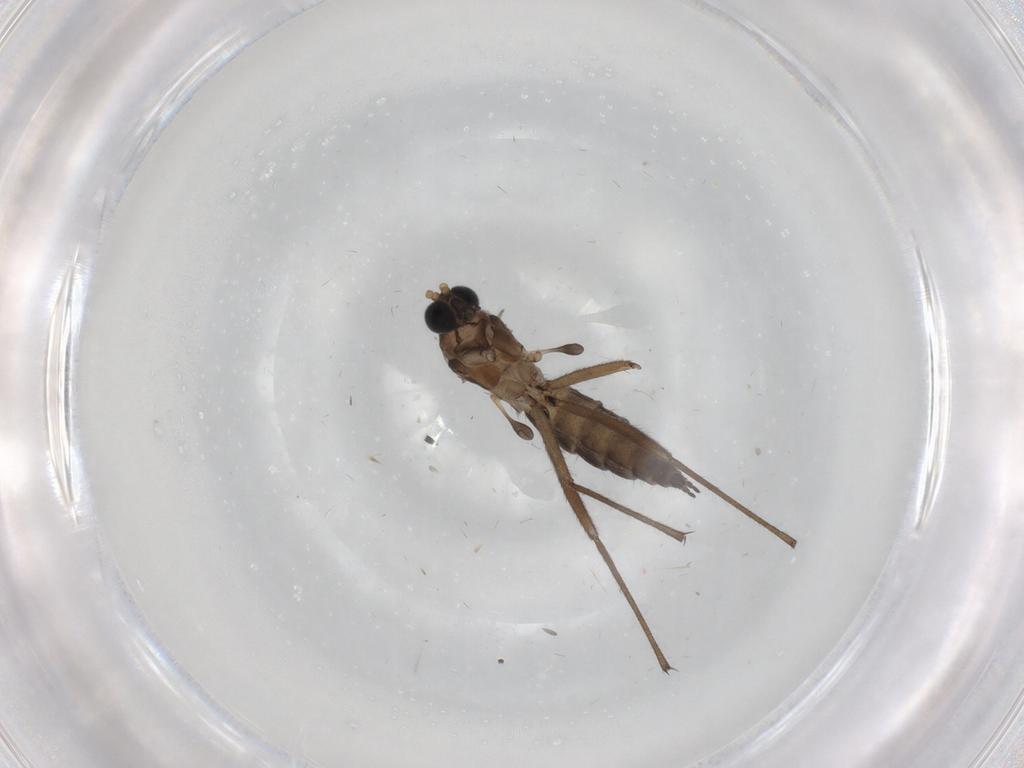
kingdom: Animalia
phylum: Arthropoda
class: Insecta
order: Diptera
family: Sciaridae
